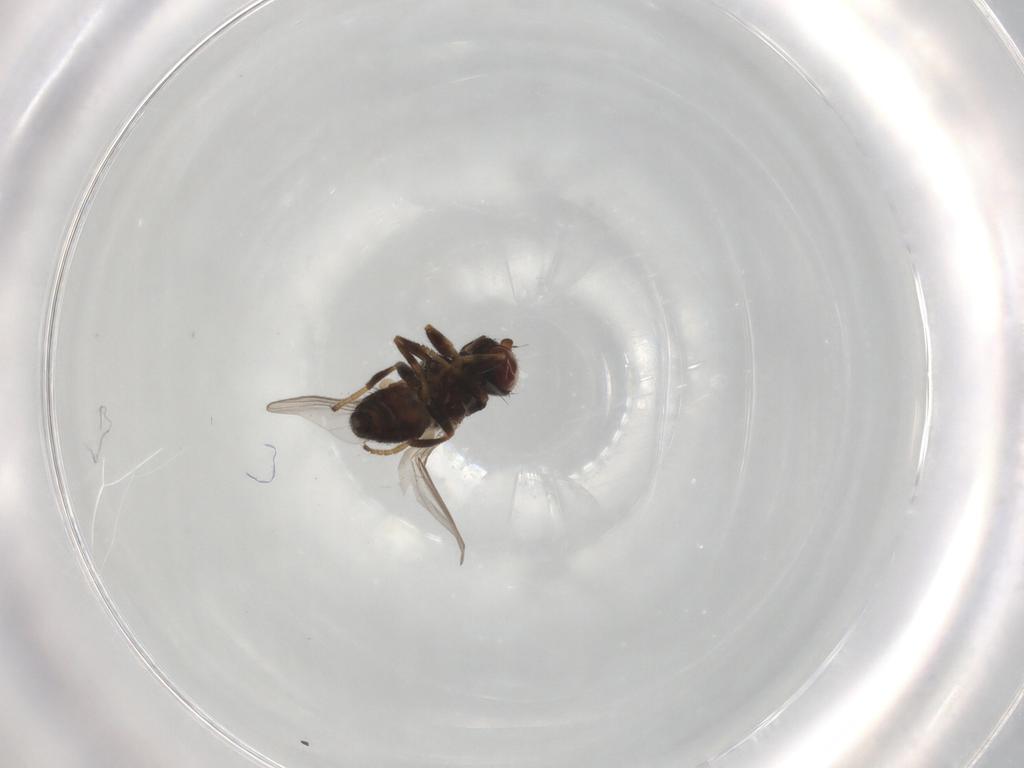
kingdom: Animalia
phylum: Arthropoda
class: Insecta
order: Diptera
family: Chloropidae
